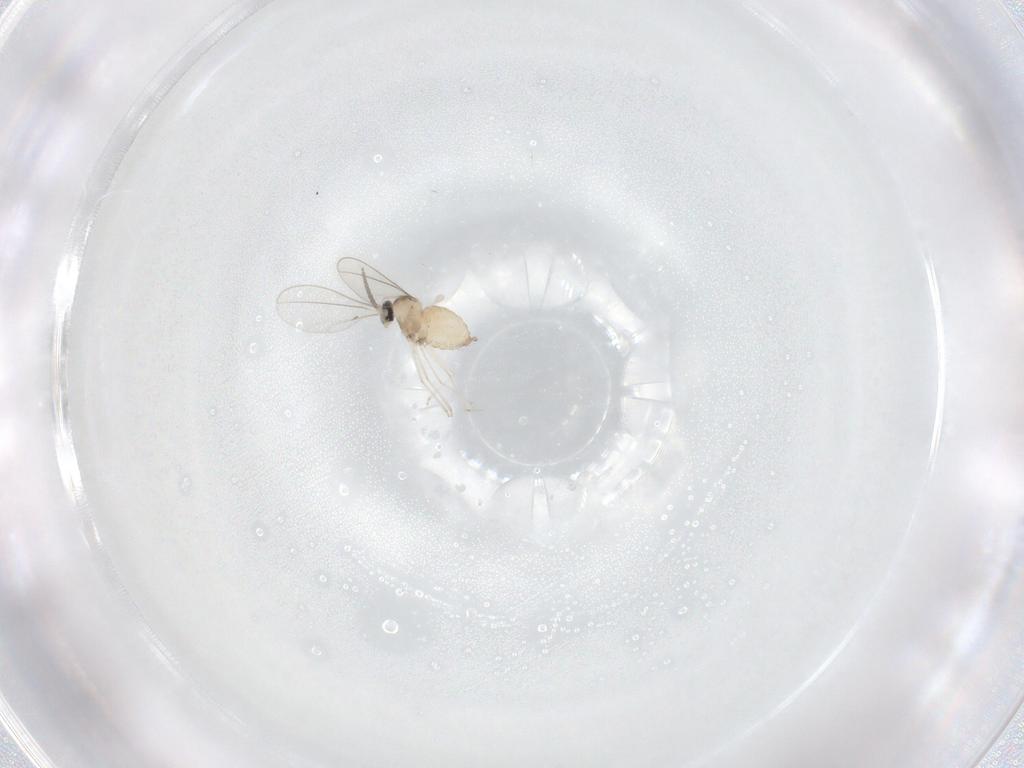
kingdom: Animalia
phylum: Arthropoda
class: Insecta
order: Diptera
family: Cecidomyiidae
